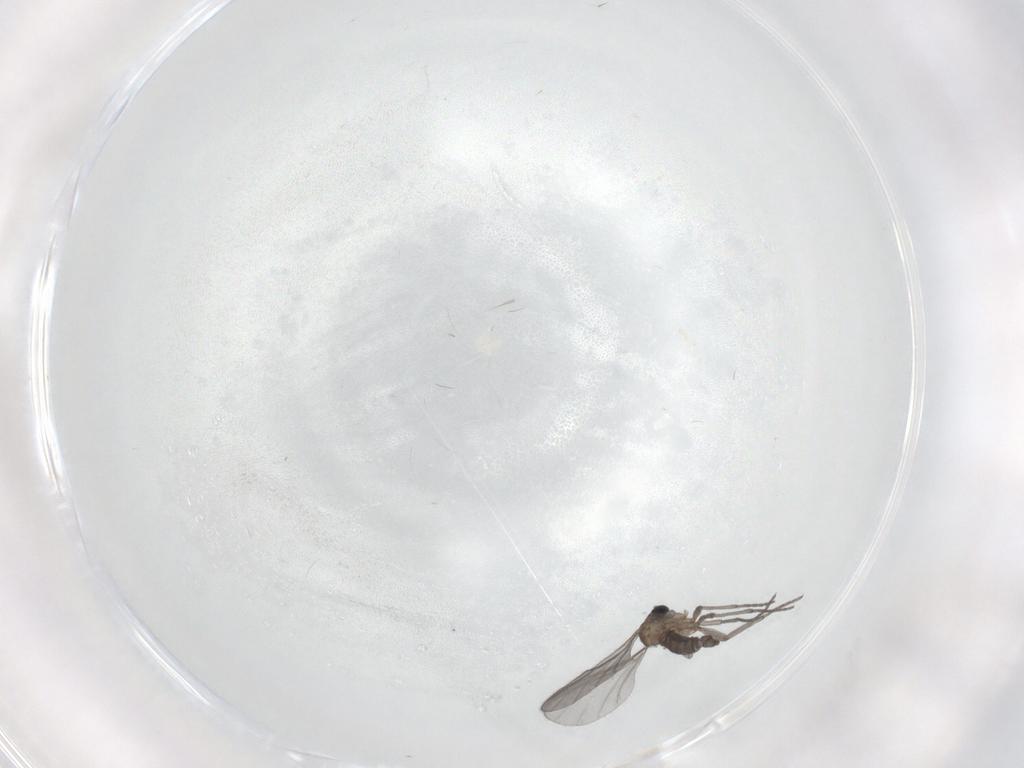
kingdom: Animalia
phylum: Arthropoda
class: Insecta
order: Diptera
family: Sciaridae
